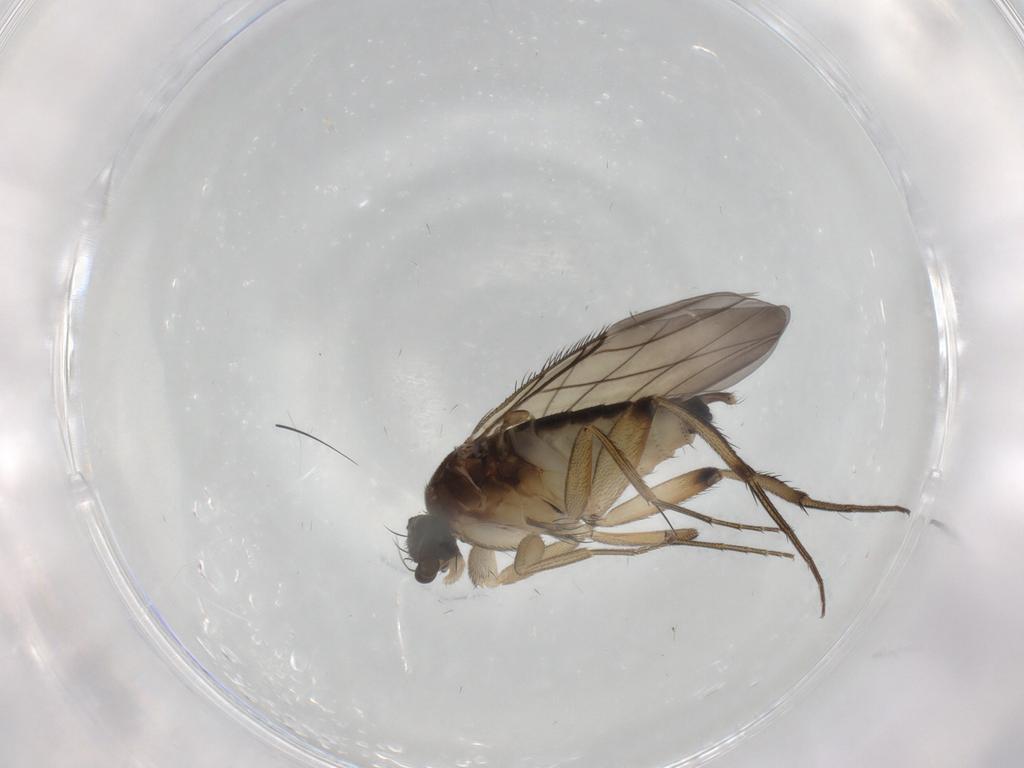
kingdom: Animalia
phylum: Arthropoda
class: Insecta
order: Diptera
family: Phoridae
